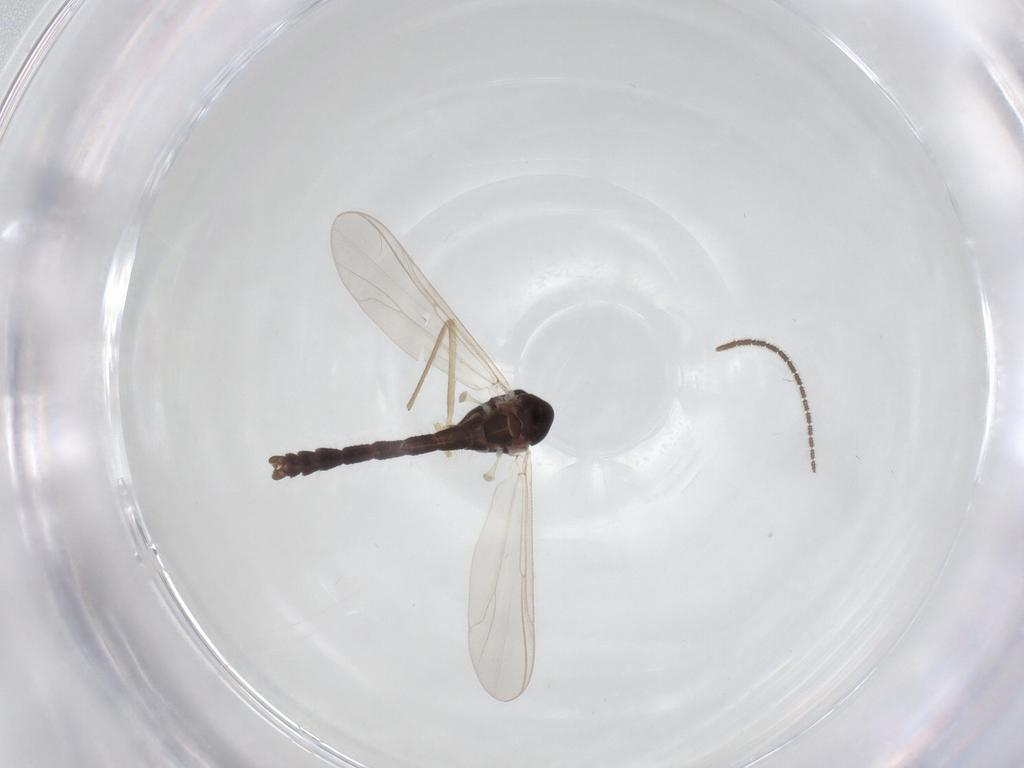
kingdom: Animalia
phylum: Arthropoda
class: Insecta
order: Diptera
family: Chironomidae
